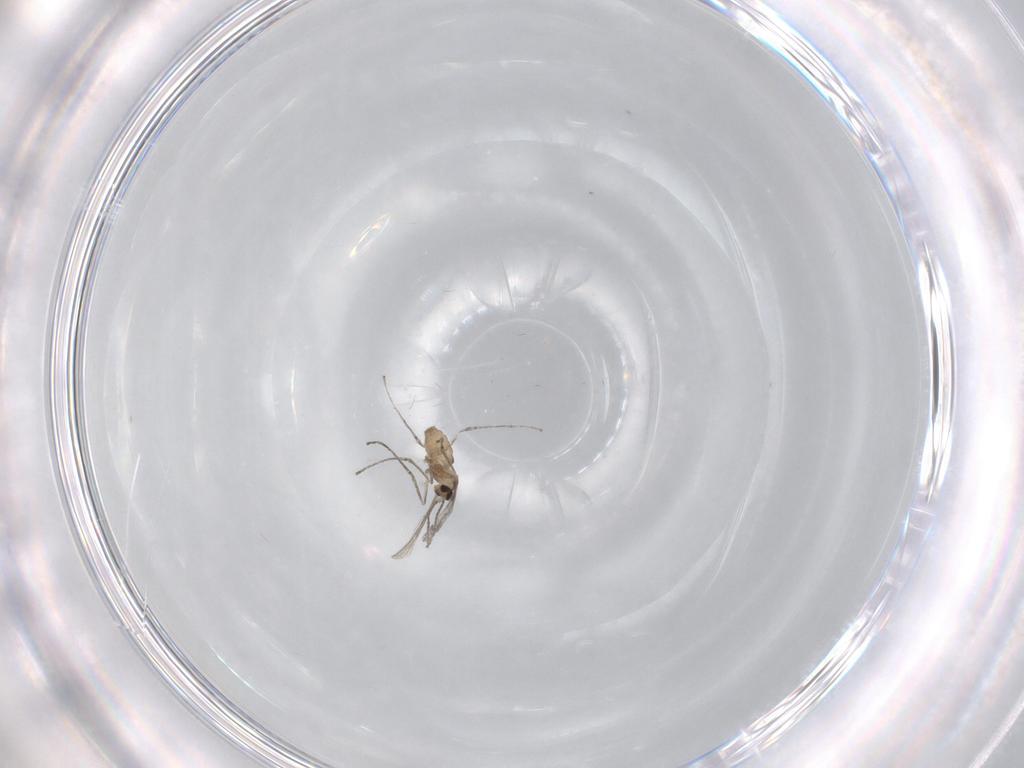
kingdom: Animalia
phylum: Arthropoda
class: Insecta
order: Diptera
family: Cecidomyiidae
